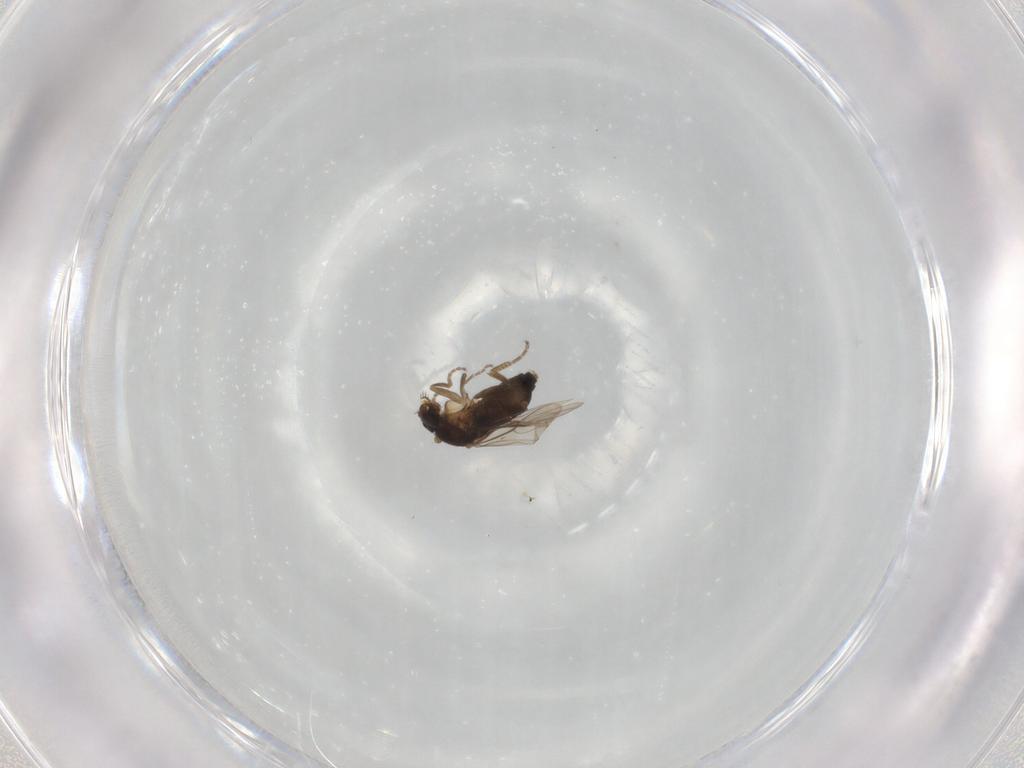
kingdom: Animalia
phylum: Arthropoda
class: Insecta
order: Diptera
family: Phoridae
